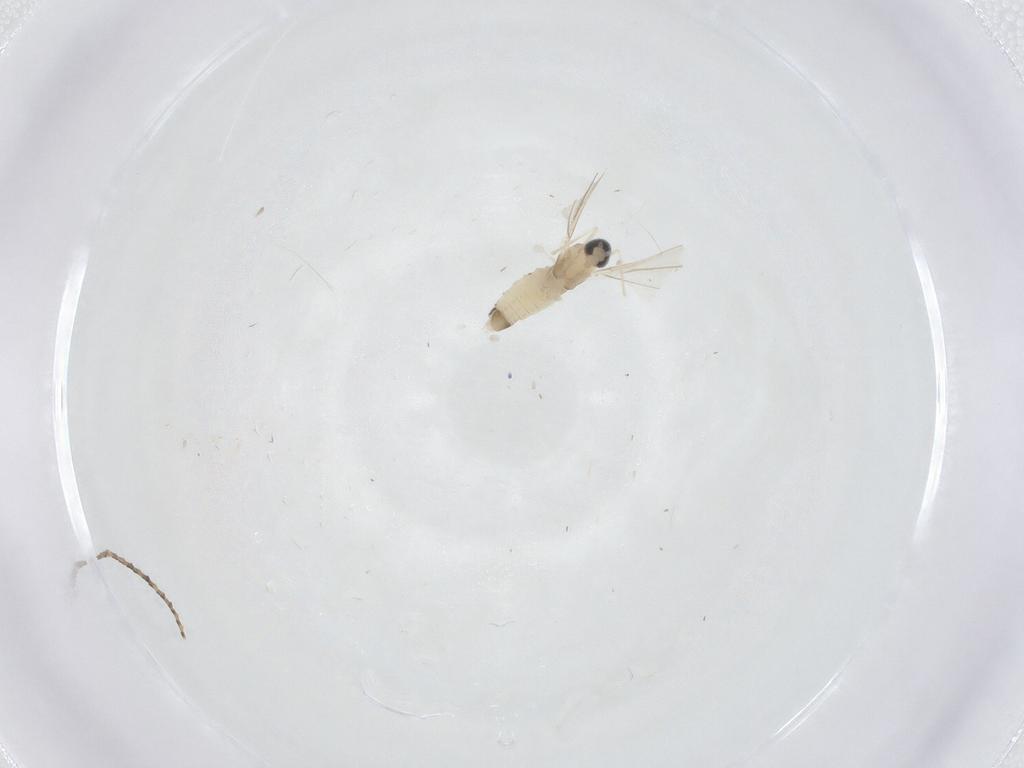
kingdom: Animalia
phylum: Arthropoda
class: Insecta
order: Diptera
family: Cecidomyiidae
